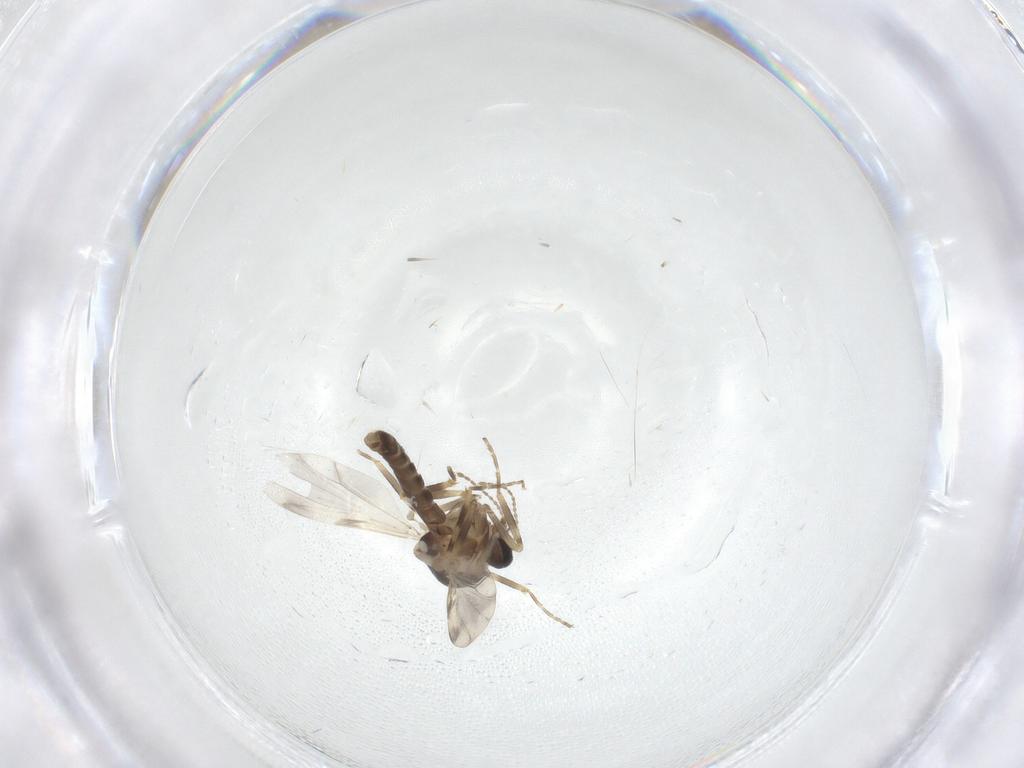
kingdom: Animalia
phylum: Arthropoda
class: Insecta
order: Diptera
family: Ceratopogonidae
